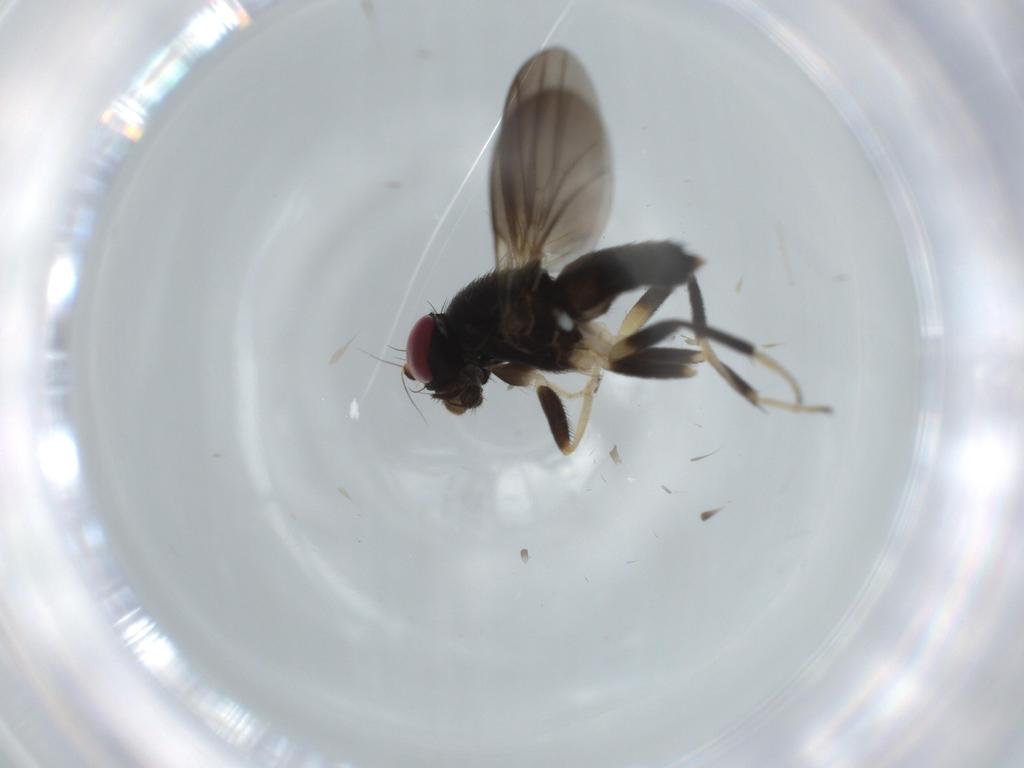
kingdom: Animalia
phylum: Arthropoda
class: Insecta
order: Diptera
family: Clusiidae
